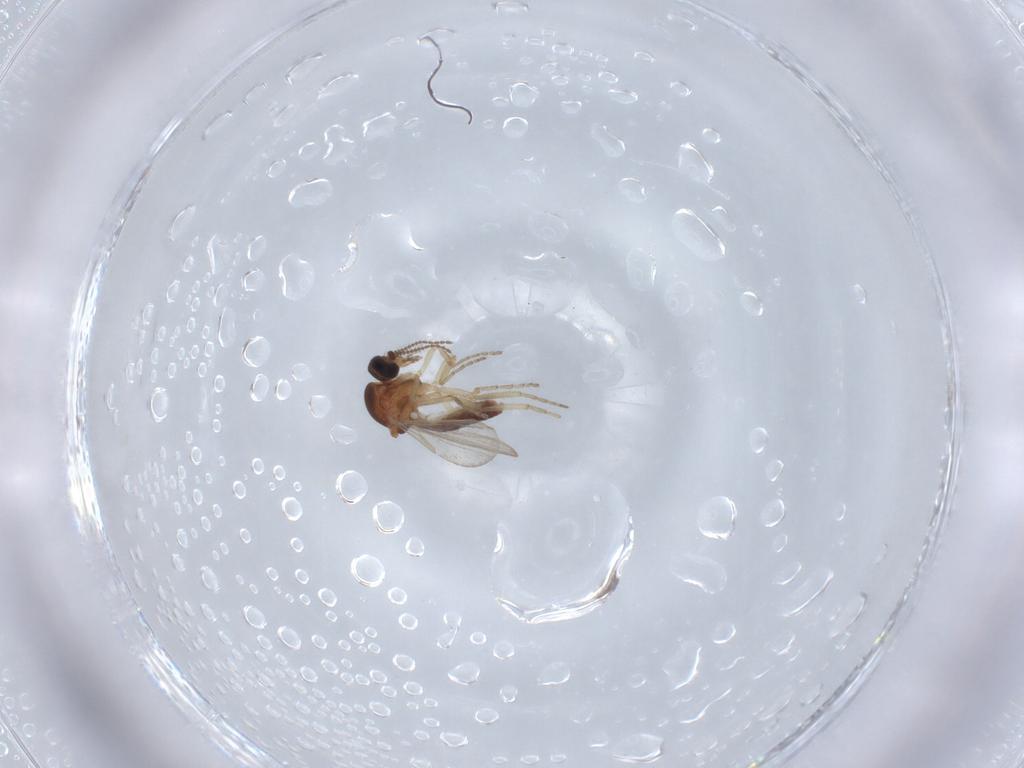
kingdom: Animalia
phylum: Arthropoda
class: Insecta
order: Diptera
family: Ceratopogonidae
